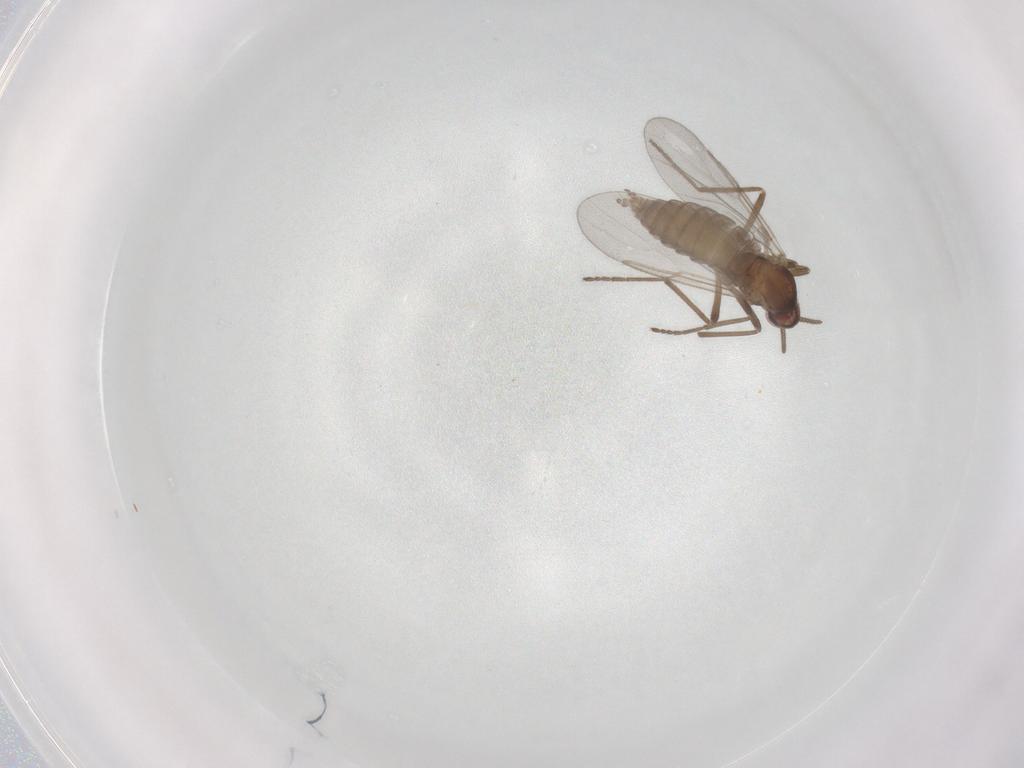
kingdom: Animalia
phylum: Arthropoda
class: Insecta
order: Diptera
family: Cecidomyiidae
